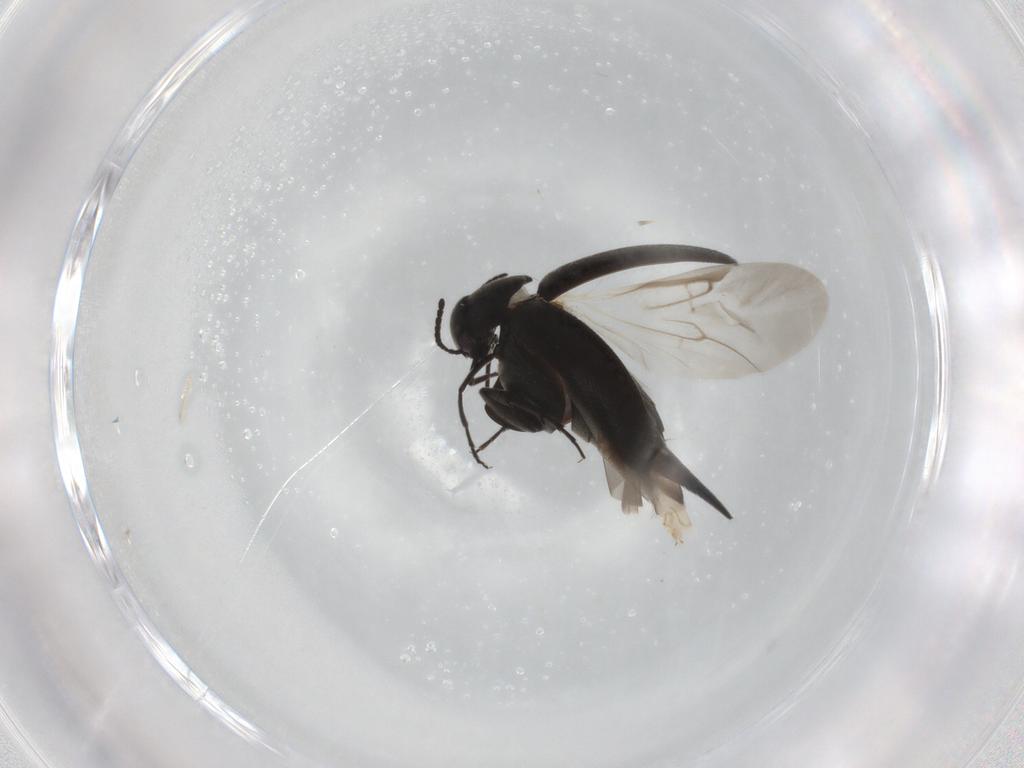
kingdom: Animalia
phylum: Arthropoda
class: Insecta
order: Coleoptera
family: Mordellidae
